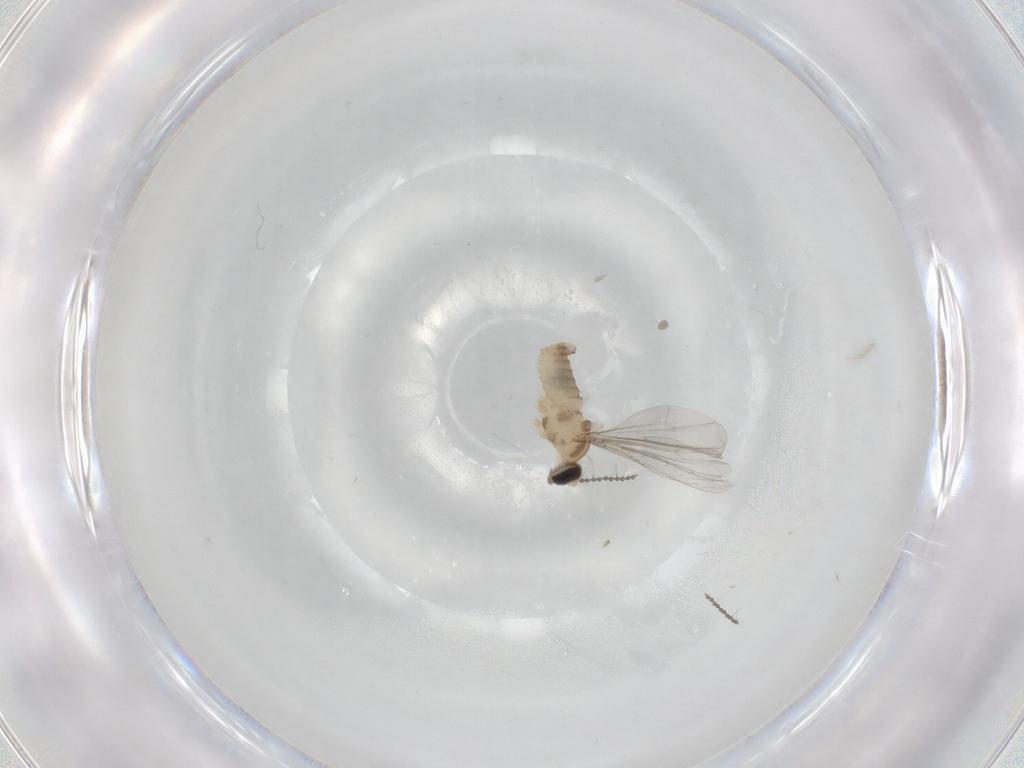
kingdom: Animalia
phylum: Arthropoda
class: Insecta
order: Diptera
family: Cecidomyiidae
